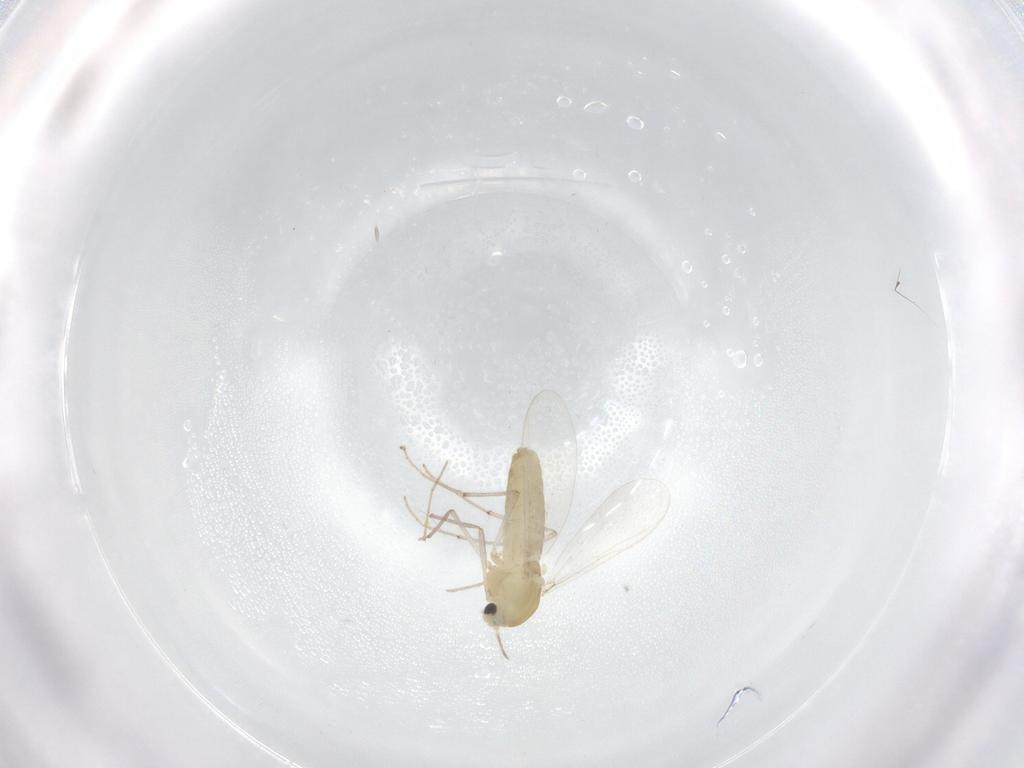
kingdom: Animalia
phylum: Arthropoda
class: Insecta
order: Diptera
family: Chironomidae
